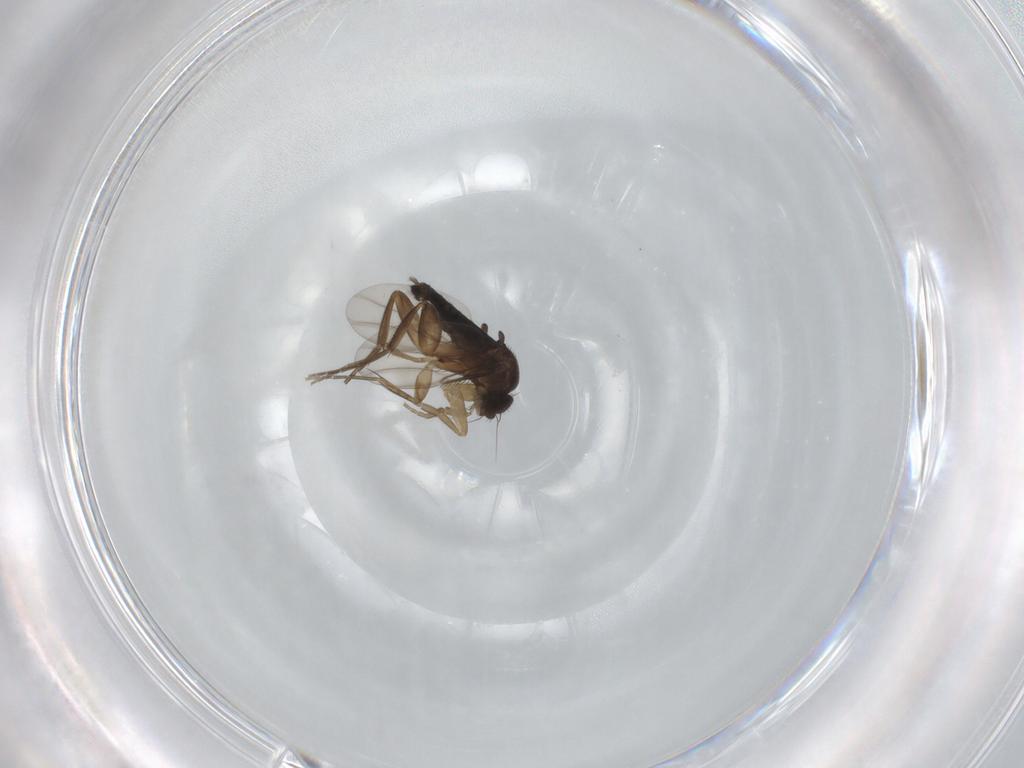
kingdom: Animalia
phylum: Arthropoda
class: Insecta
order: Diptera
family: Phoridae
